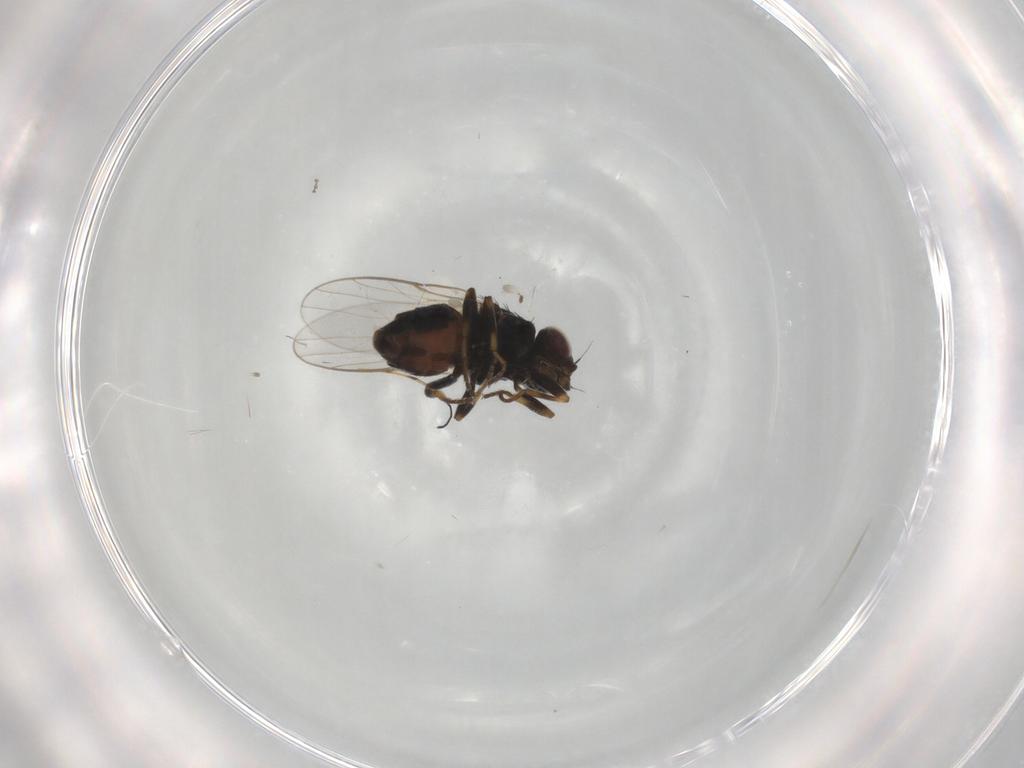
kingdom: Animalia
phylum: Arthropoda
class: Insecta
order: Diptera
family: Chloropidae
